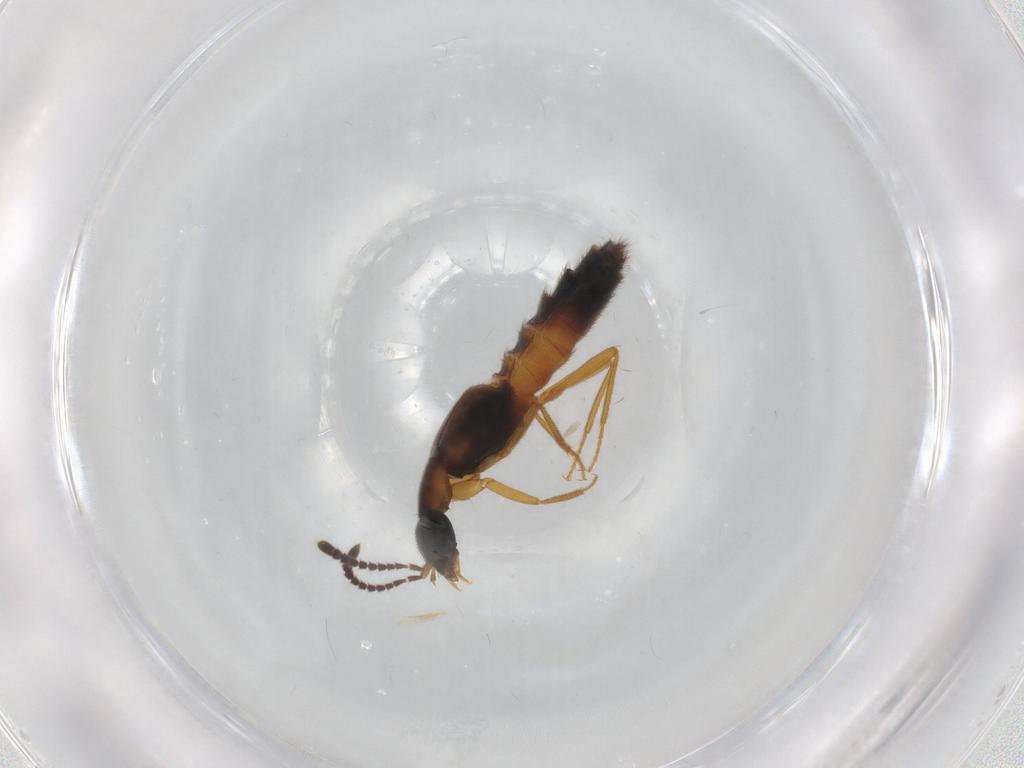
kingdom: Animalia
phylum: Arthropoda
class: Insecta
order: Coleoptera
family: Staphylinidae
